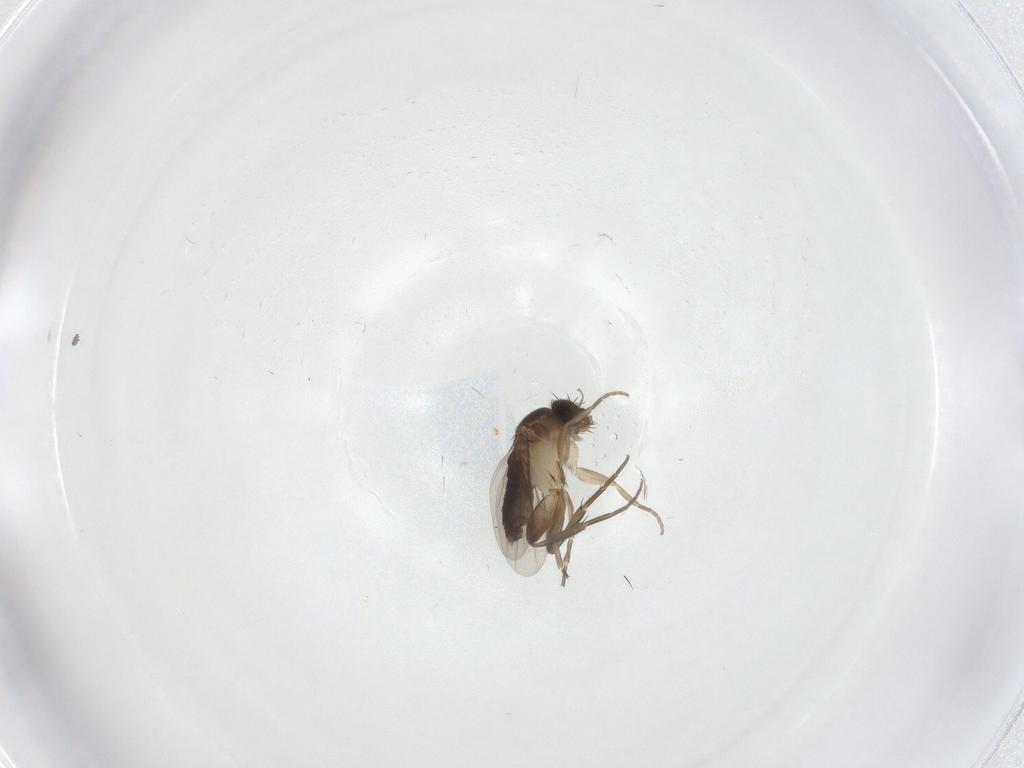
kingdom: Animalia
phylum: Arthropoda
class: Insecta
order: Diptera
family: Phoridae
